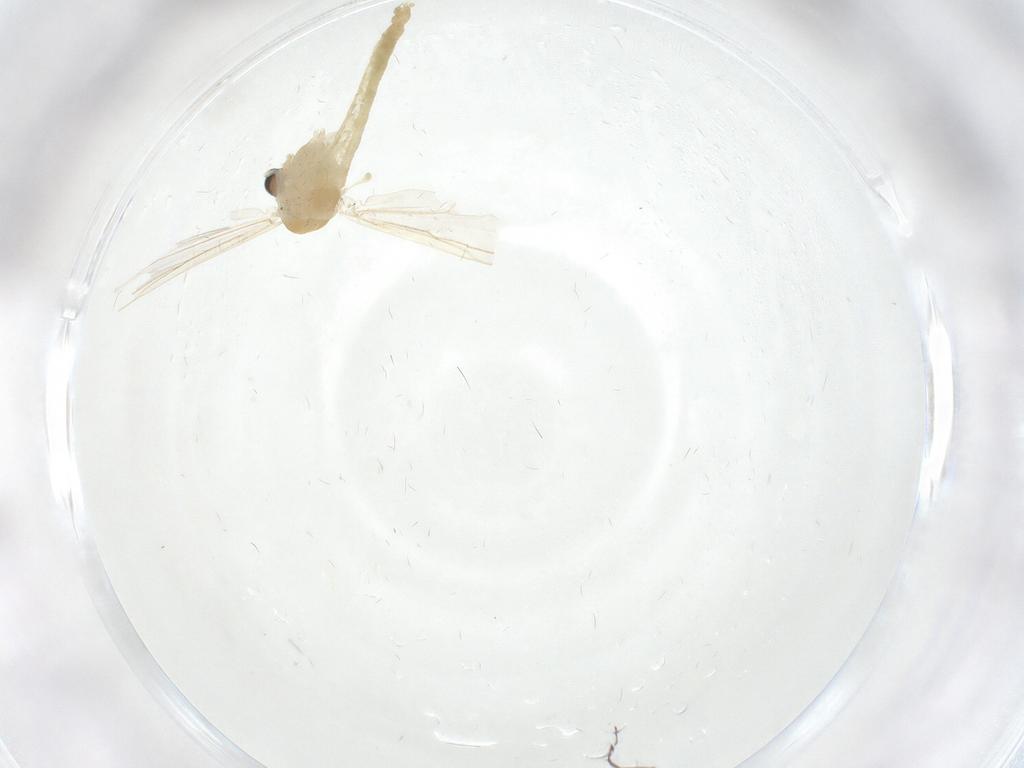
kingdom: Animalia
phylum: Arthropoda
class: Insecta
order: Diptera
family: Chironomidae
